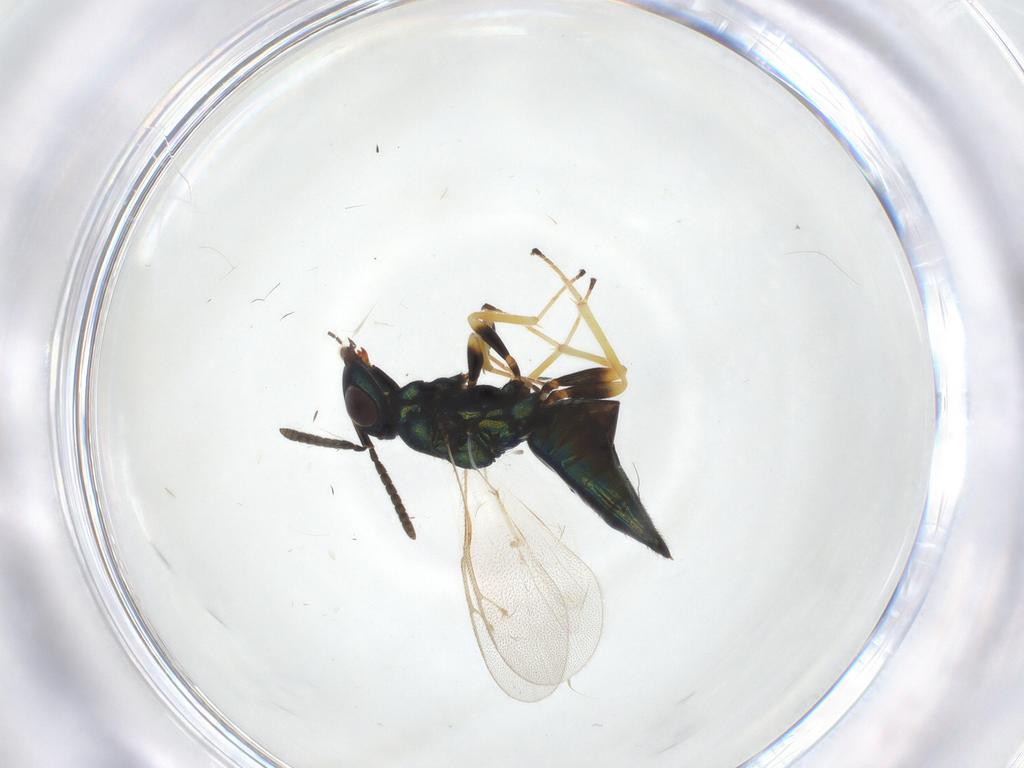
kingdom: Animalia
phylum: Arthropoda
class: Insecta
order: Hymenoptera
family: Pteromalidae
